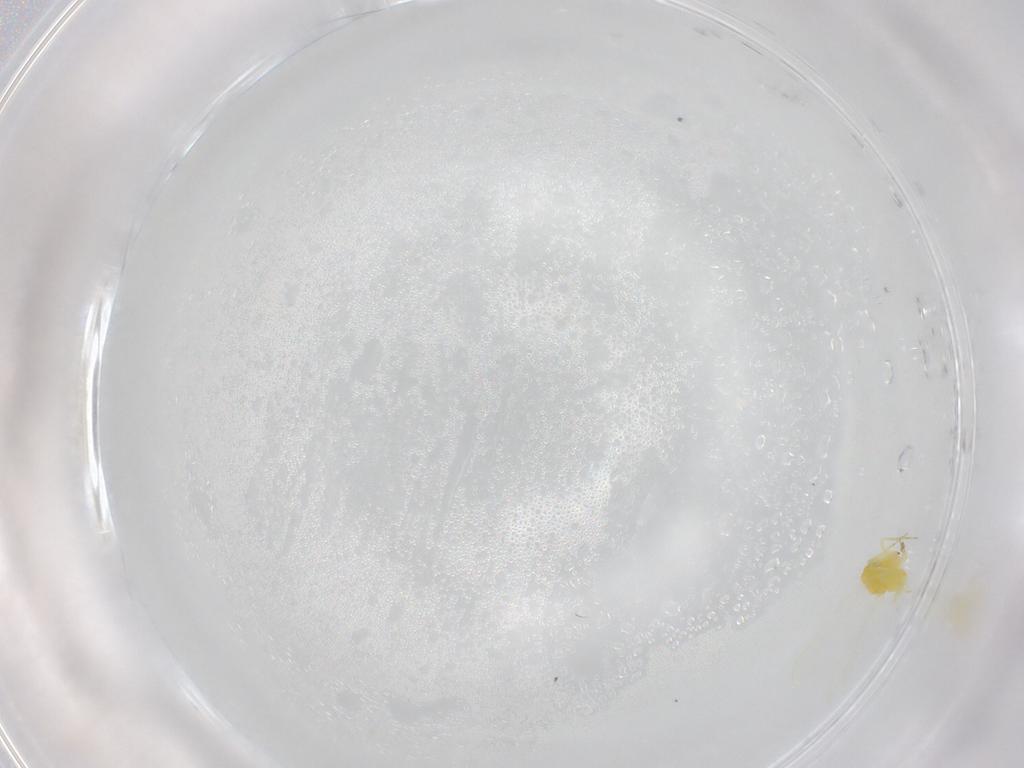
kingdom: Animalia
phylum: Arthropoda
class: Insecta
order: Hemiptera
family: Aleyrodidae
